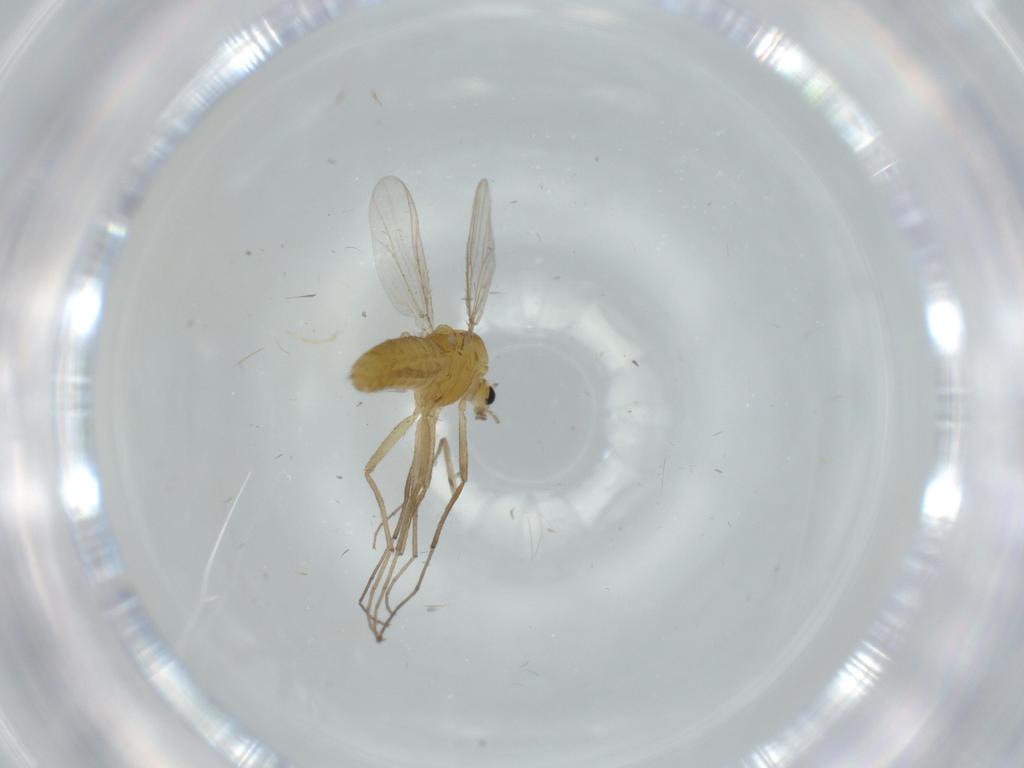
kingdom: Animalia
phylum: Arthropoda
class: Insecta
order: Diptera
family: Chironomidae
